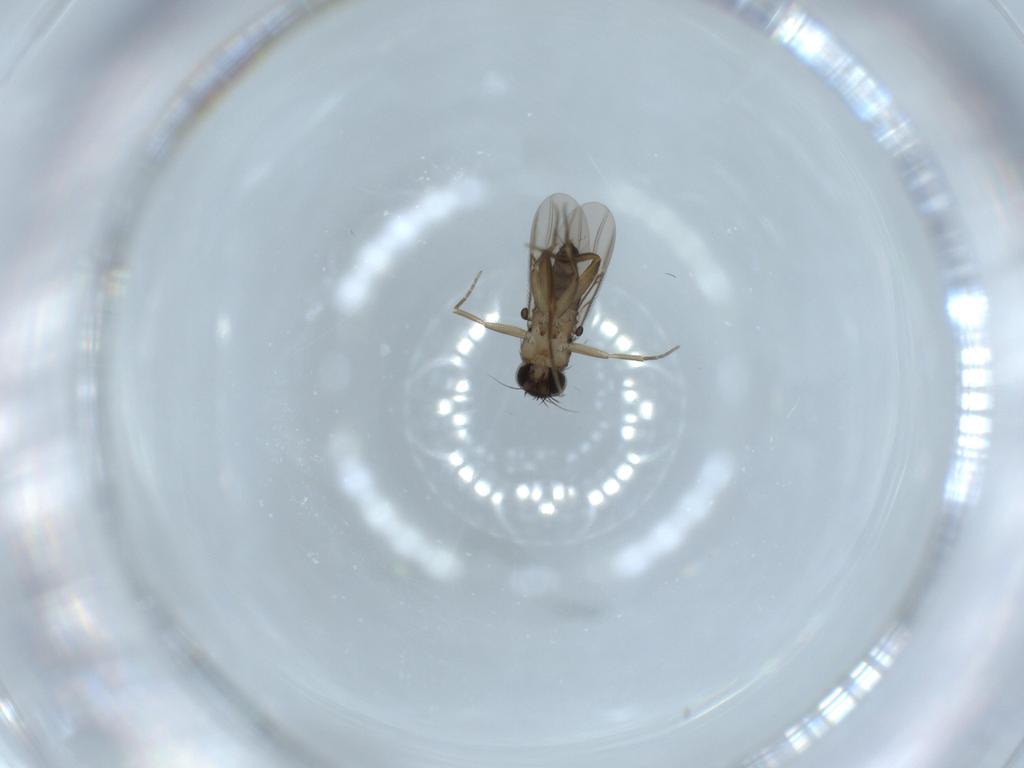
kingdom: Animalia
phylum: Arthropoda
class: Insecta
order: Diptera
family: Phoridae
